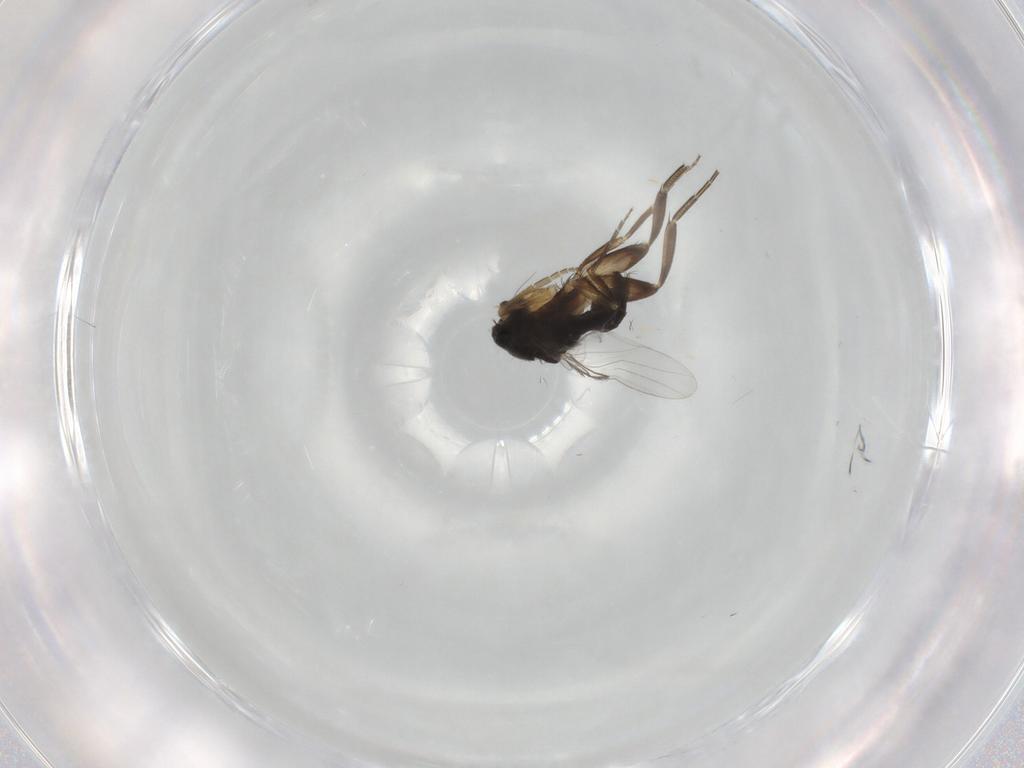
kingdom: Animalia
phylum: Arthropoda
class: Insecta
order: Diptera
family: Phoridae
